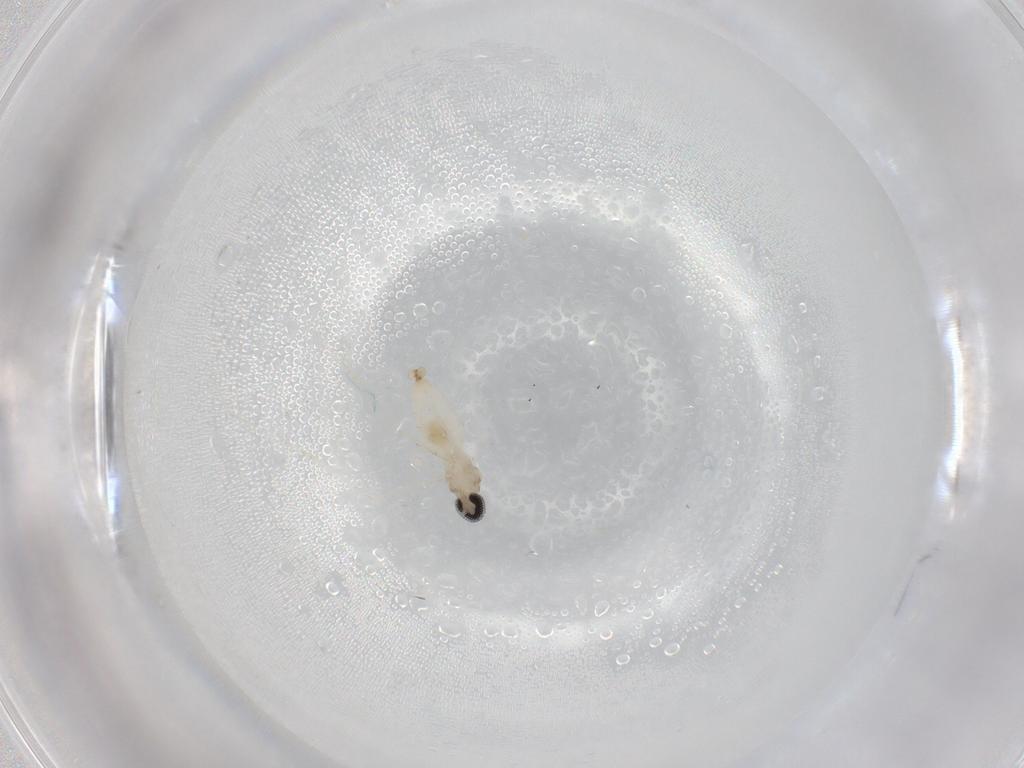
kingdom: Animalia
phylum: Arthropoda
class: Insecta
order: Diptera
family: Cecidomyiidae
